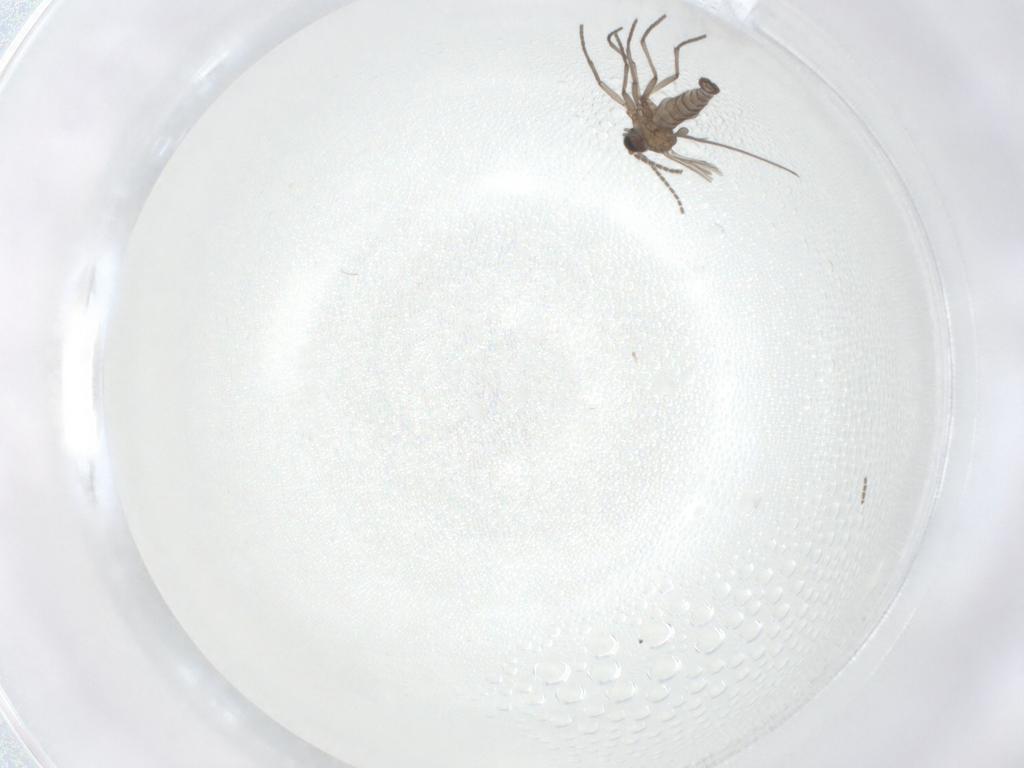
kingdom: Animalia
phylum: Arthropoda
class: Insecta
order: Diptera
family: Sciaridae
